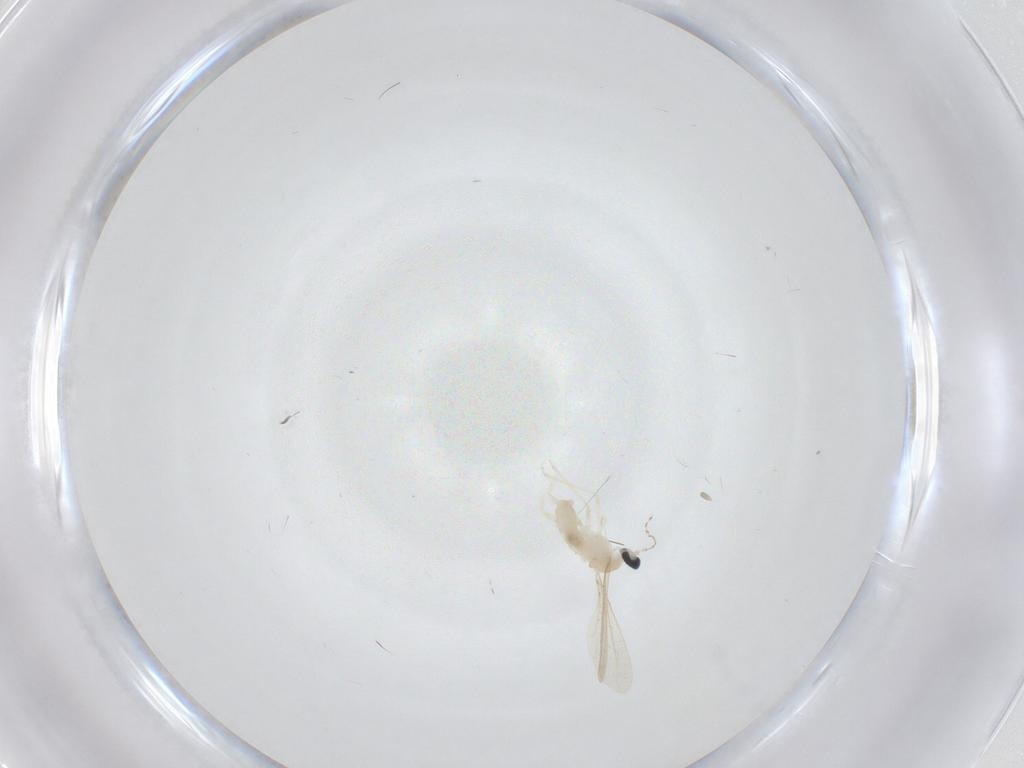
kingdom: Animalia
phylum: Arthropoda
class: Insecta
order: Diptera
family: Cecidomyiidae
